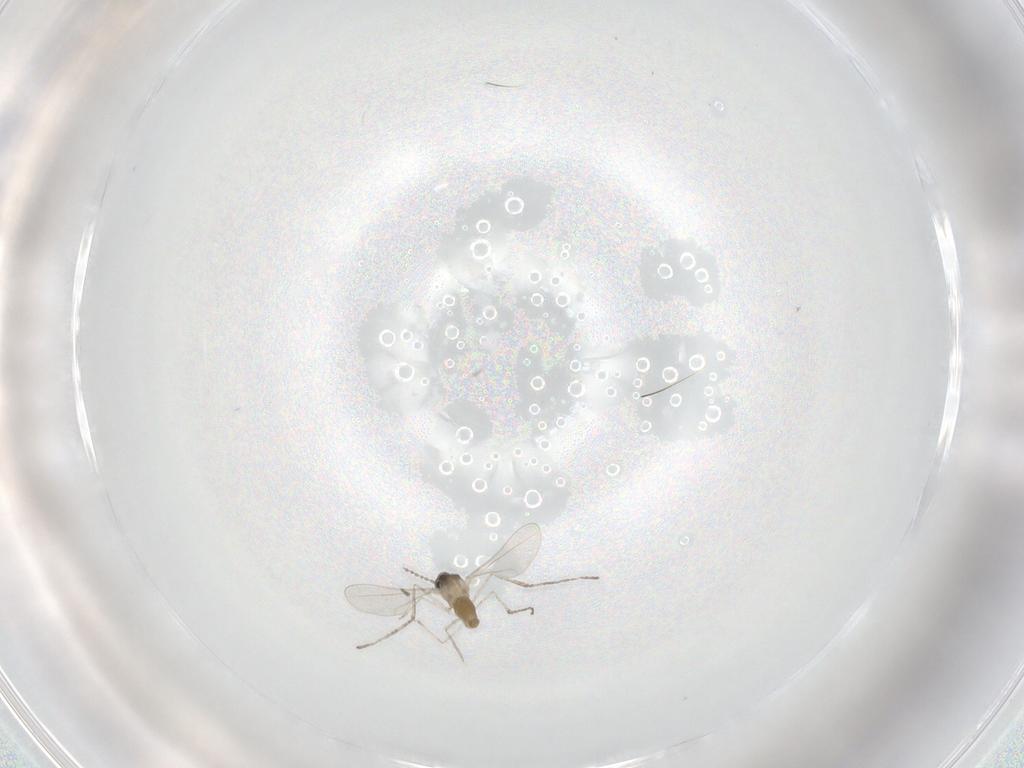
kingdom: Animalia
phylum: Arthropoda
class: Insecta
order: Diptera
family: Cecidomyiidae
